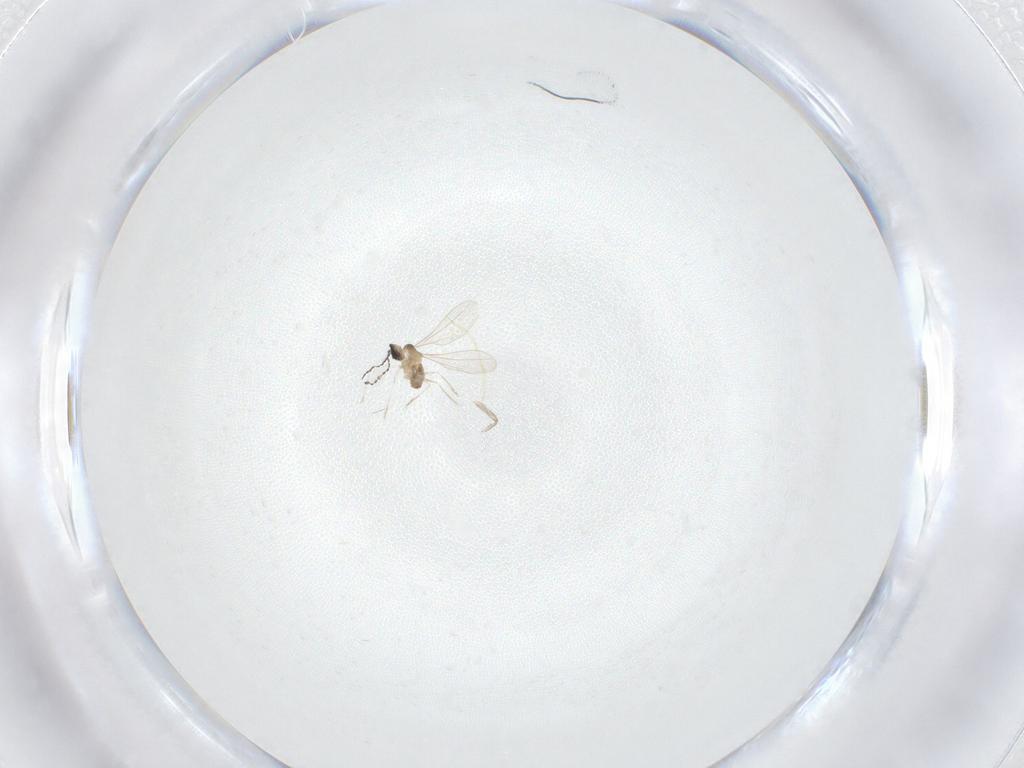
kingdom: Animalia
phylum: Arthropoda
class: Insecta
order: Diptera
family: Psychodidae
